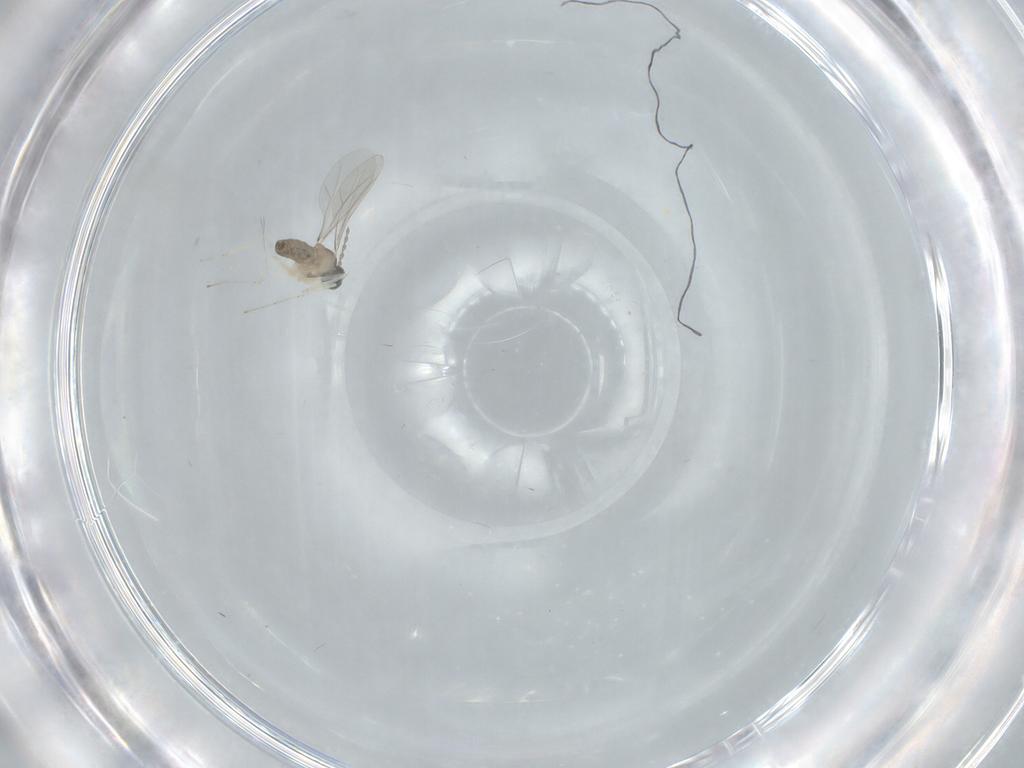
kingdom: Animalia
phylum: Arthropoda
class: Insecta
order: Diptera
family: Cecidomyiidae
